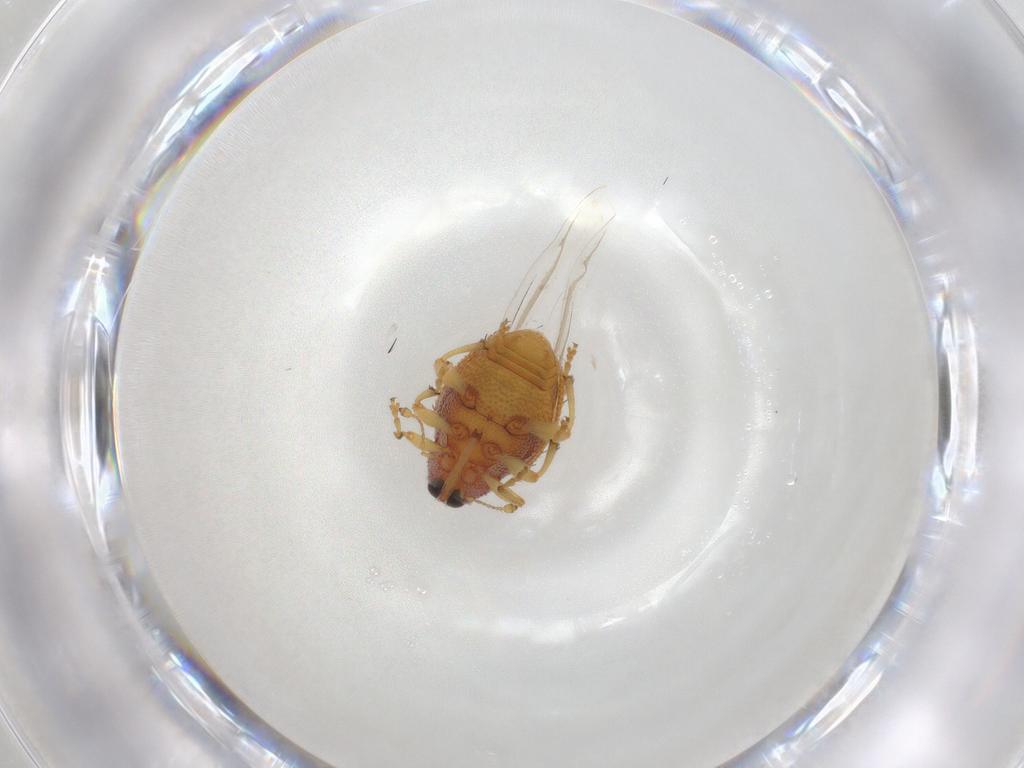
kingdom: Animalia
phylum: Arthropoda
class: Insecta
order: Coleoptera
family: Curculionidae
